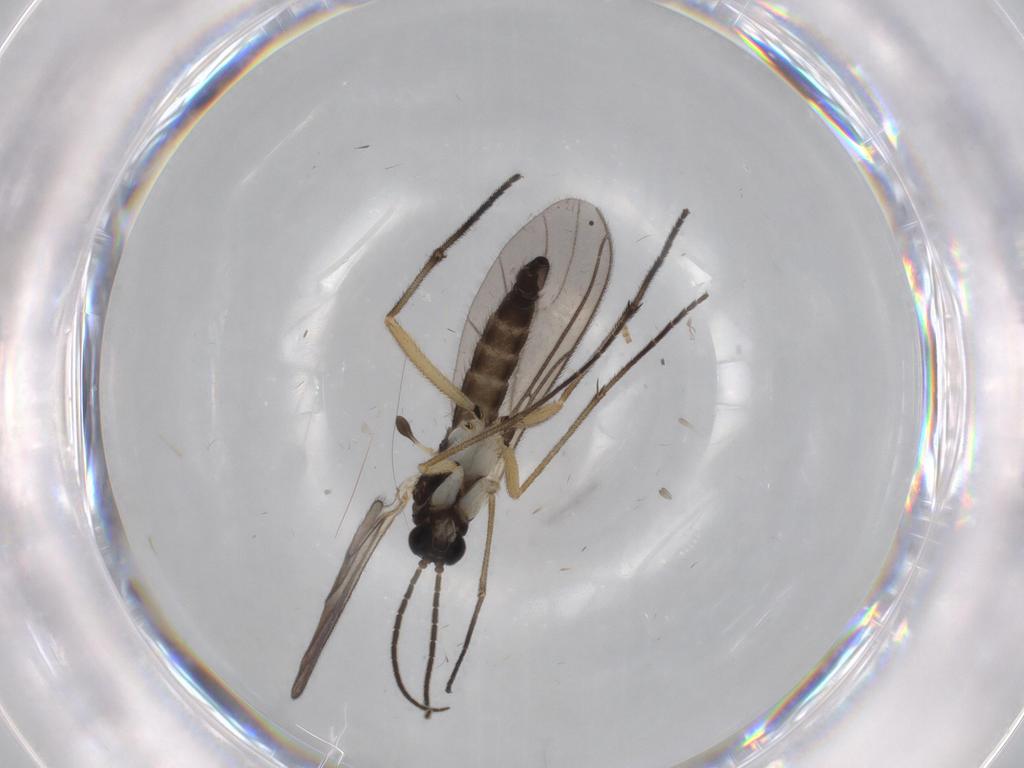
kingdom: Animalia
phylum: Arthropoda
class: Insecta
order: Diptera
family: Sciaridae
